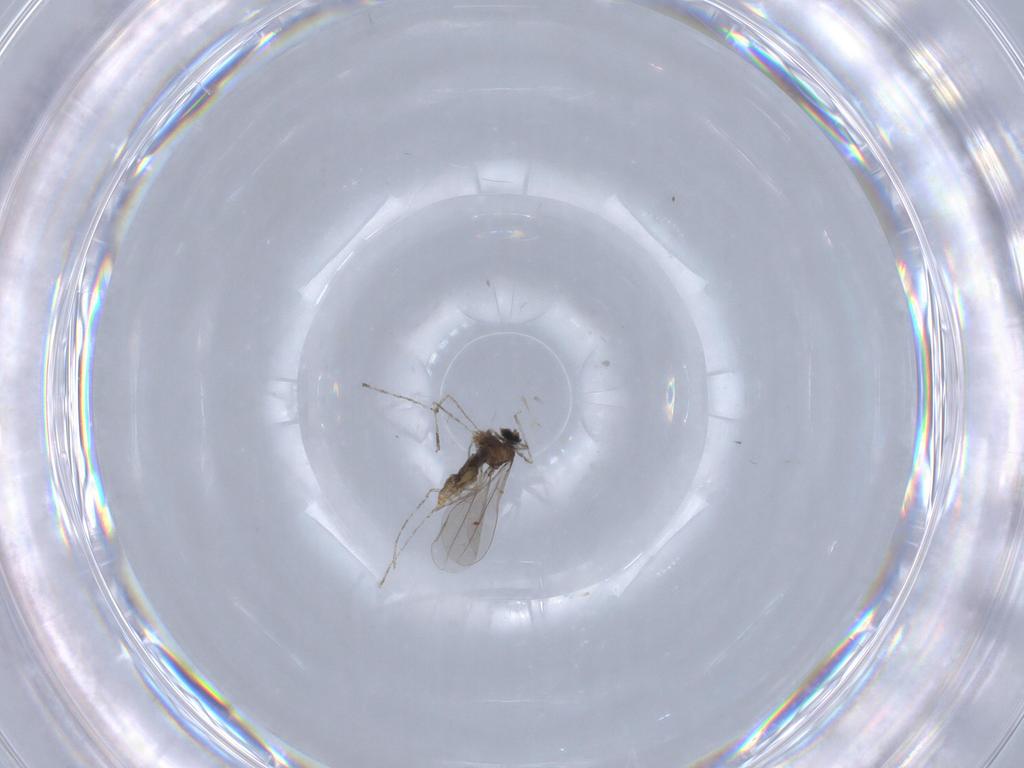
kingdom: Animalia
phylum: Arthropoda
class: Insecta
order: Diptera
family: Cecidomyiidae
